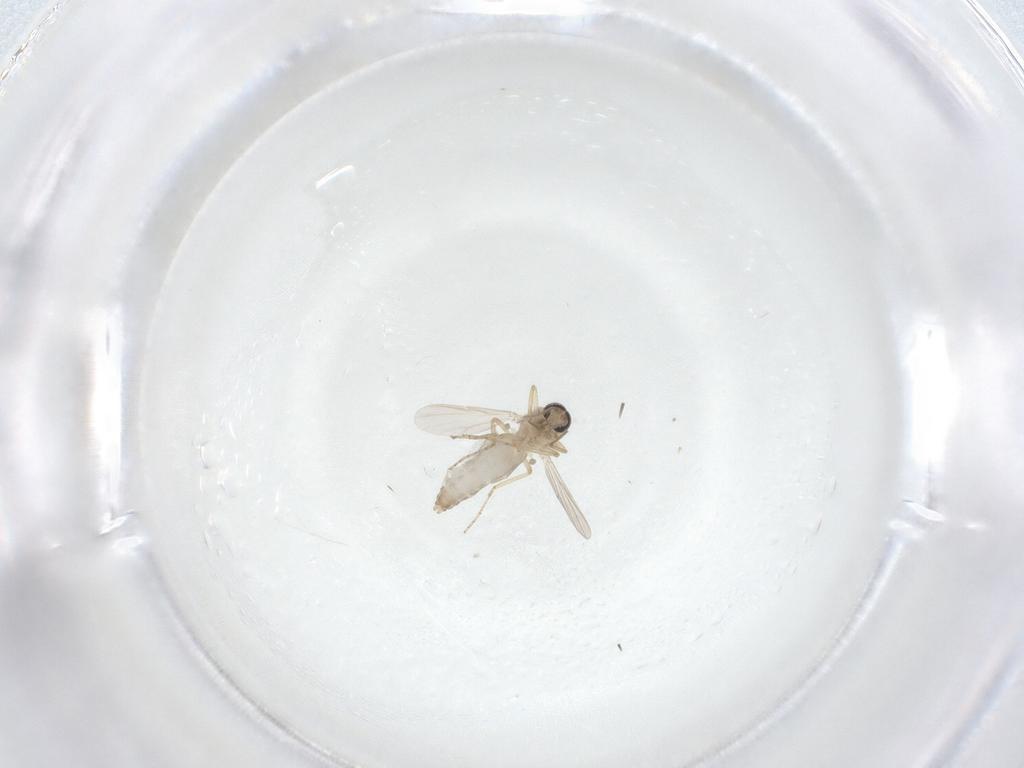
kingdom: Animalia
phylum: Arthropoda
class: Insecta
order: Diptera
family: Ceratopogonidae
